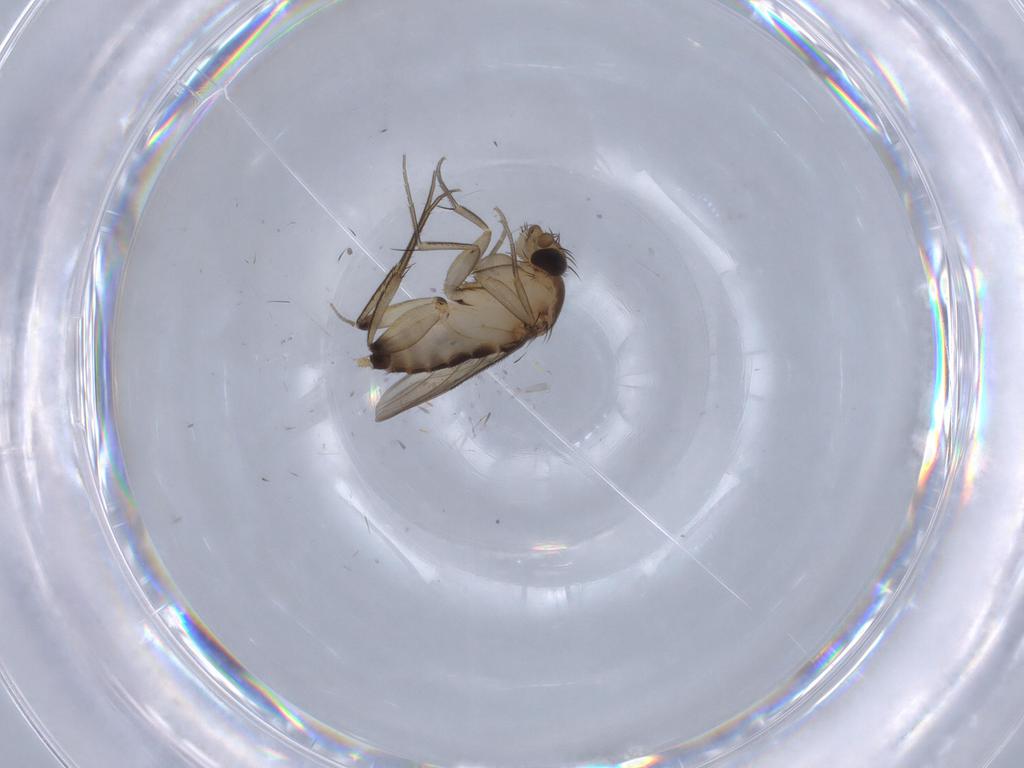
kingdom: Animalia
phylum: Arthropoda
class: Insecta
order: Diptera
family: Cecidomyiidae
